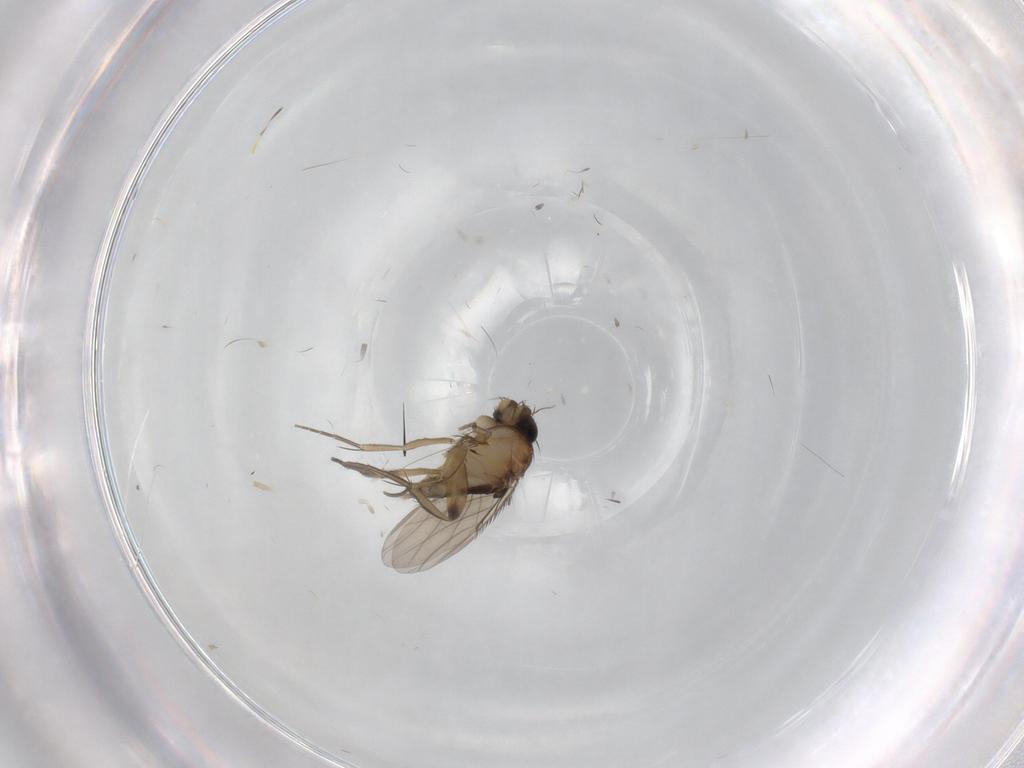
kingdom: Animalia
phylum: Arthropoda
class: Insecta
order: Diptera
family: Phoridae
